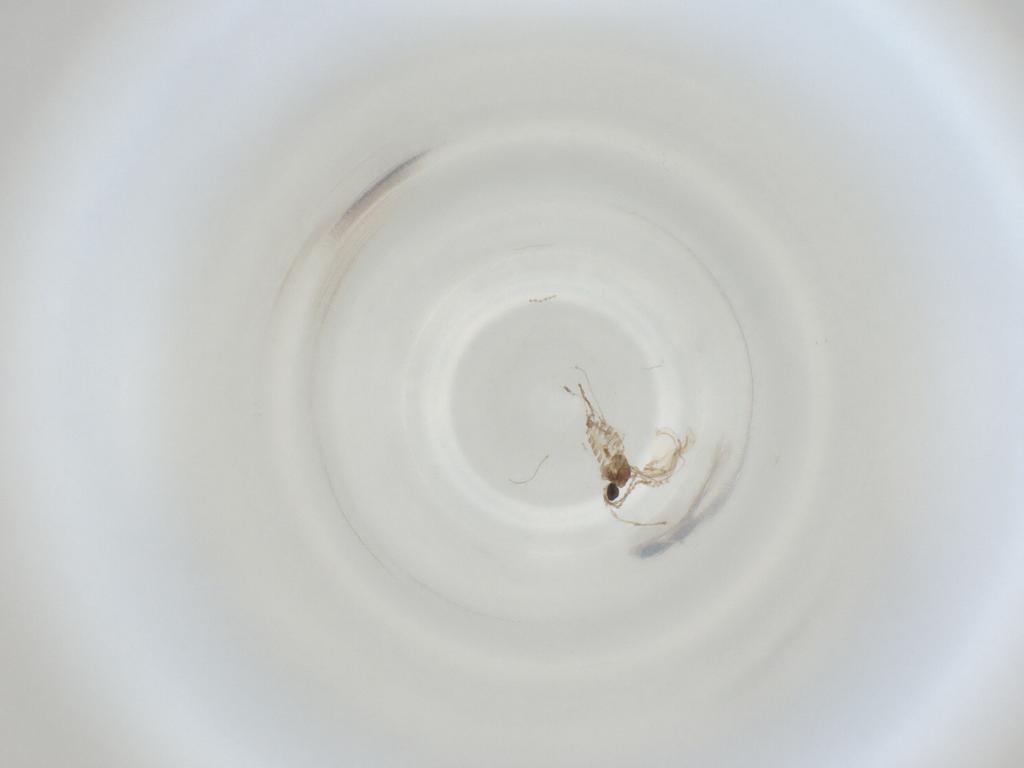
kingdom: Animalia
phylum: Arthropoda
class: Insecta
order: Diptera
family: Cecidomyiidae
